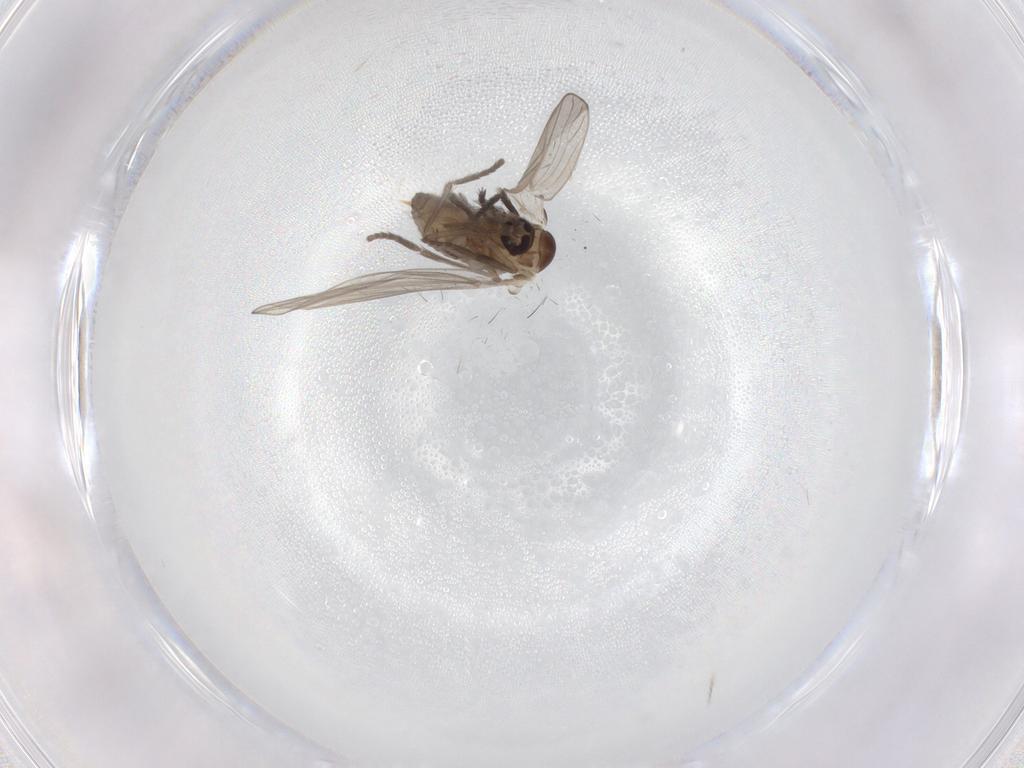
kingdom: Animalia
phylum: Arthropoda
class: Insecta
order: Diptera
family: Psychodidae
